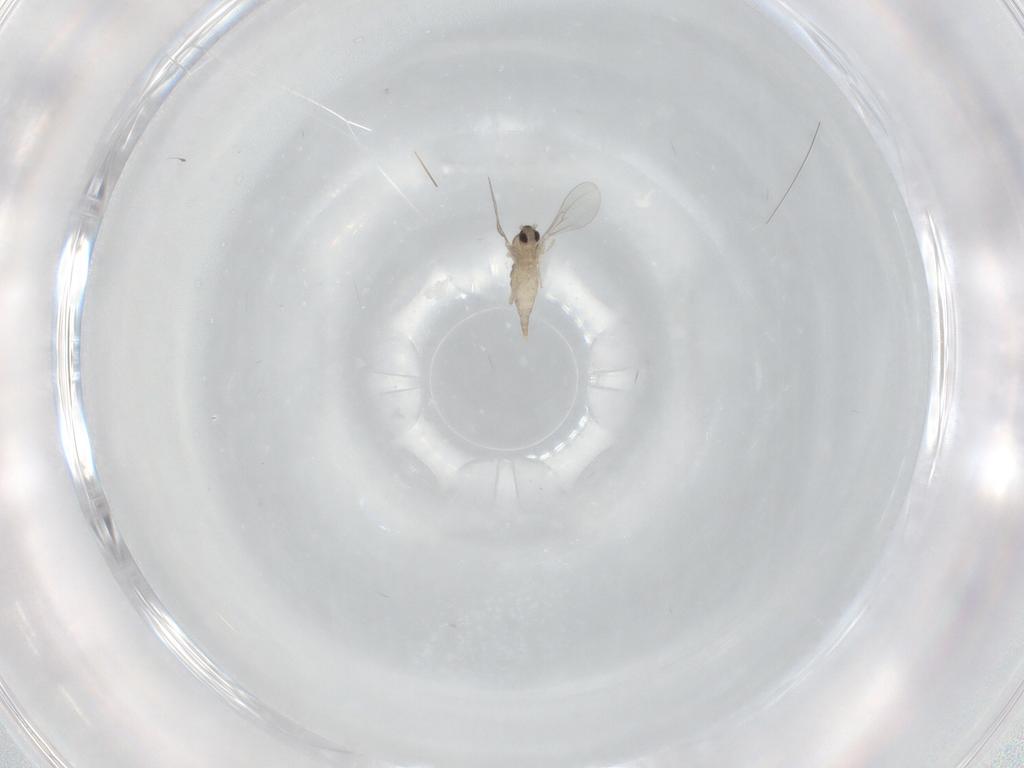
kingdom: Animalia
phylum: Arthropoda
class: Insecta
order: Diptera
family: Cecidomyiidae
